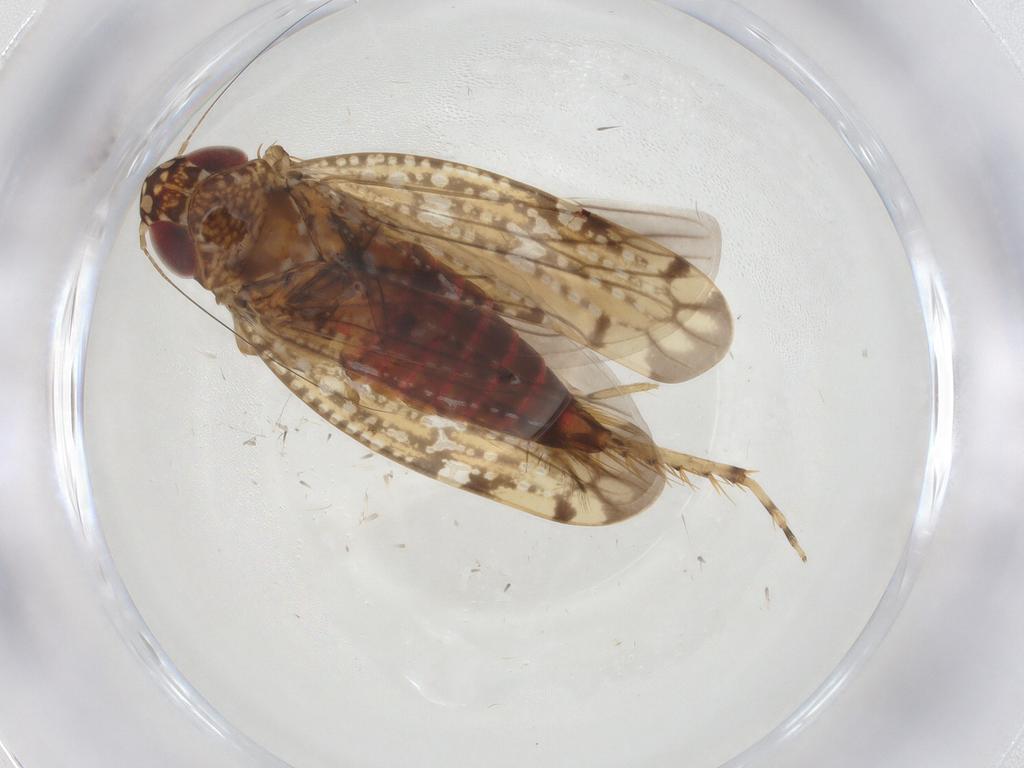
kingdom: Animalia
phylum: Arthropoda
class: Insecta
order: Hemiptera
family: Cicadellidae
